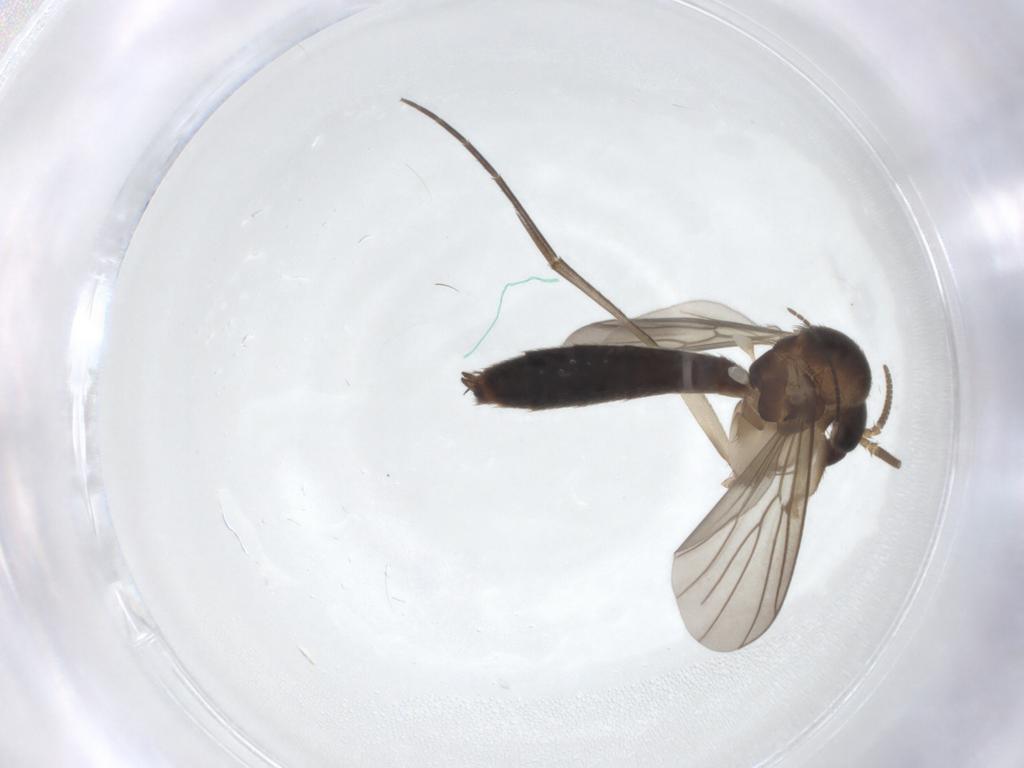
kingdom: Animalia
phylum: Arthropoda
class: Insecta
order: Diptera
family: Mycetophilidae
